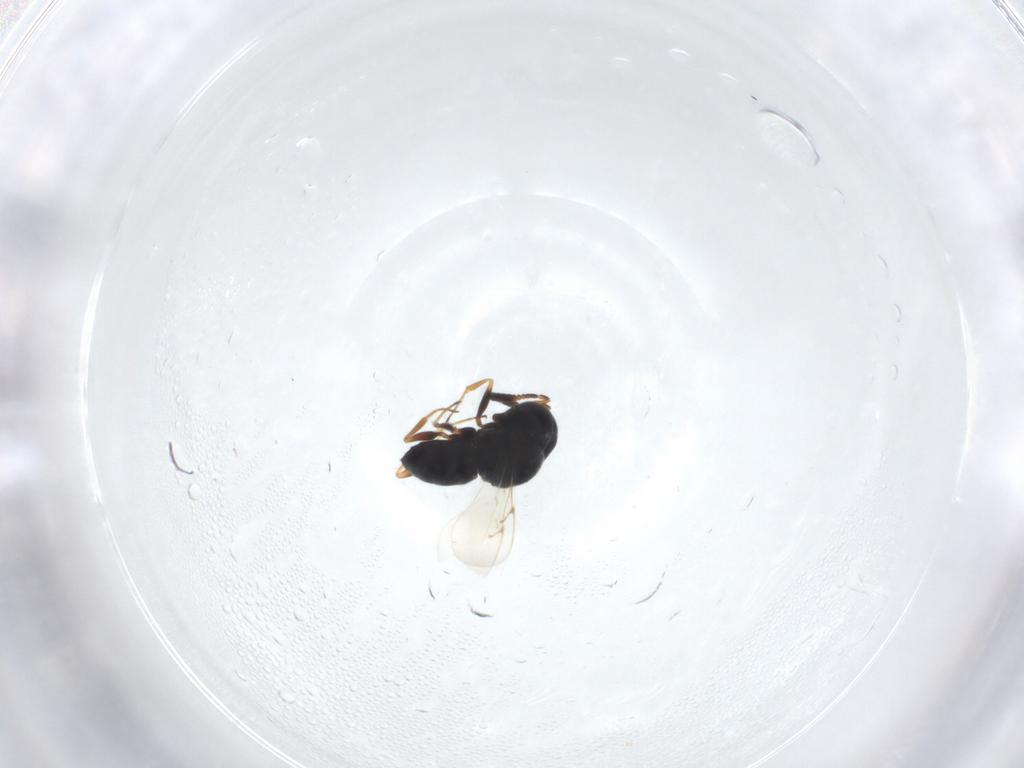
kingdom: Animalia
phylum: Arthropoda
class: Insecta
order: Hymenoptera
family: Scelionidae
